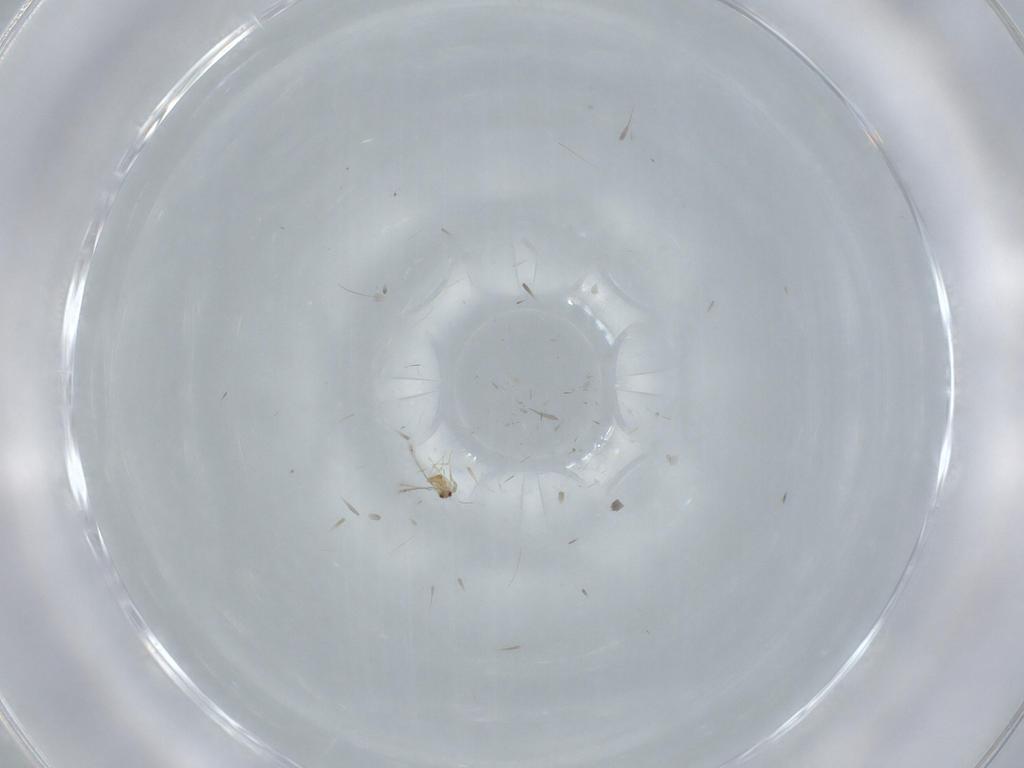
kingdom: Animalia
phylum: Arthropoda
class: Insecta
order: Hymenoptera
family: Mymaridae
